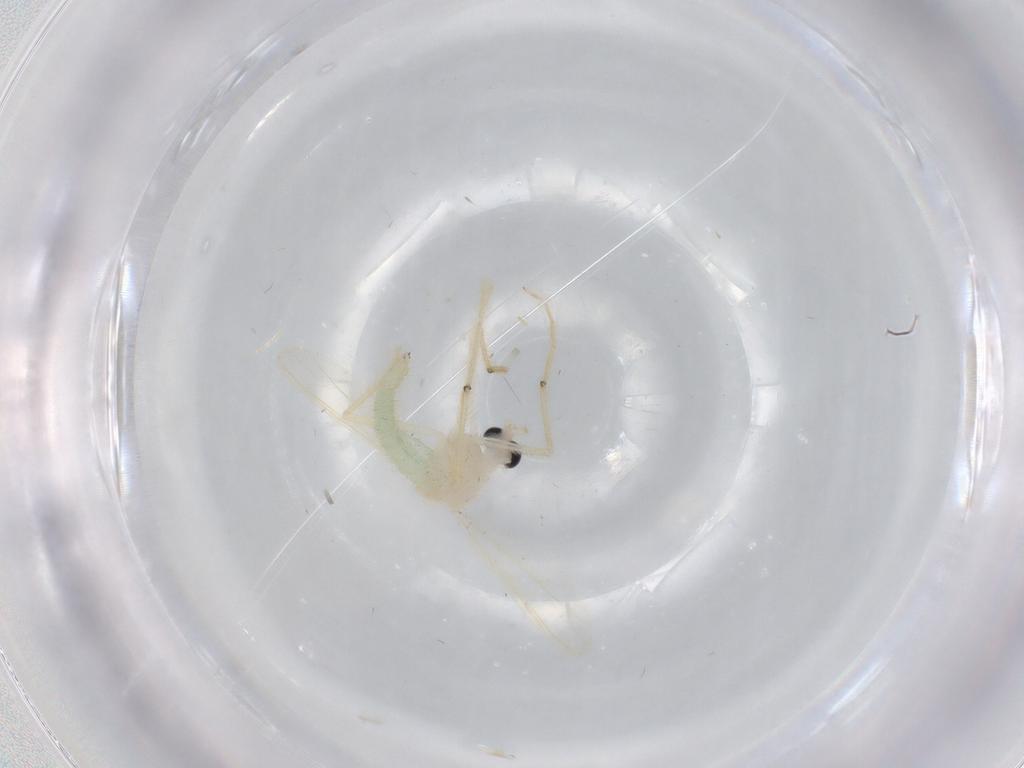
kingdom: Animalia
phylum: Arthropoda
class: Insecta
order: Diptera
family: Chironomidae
